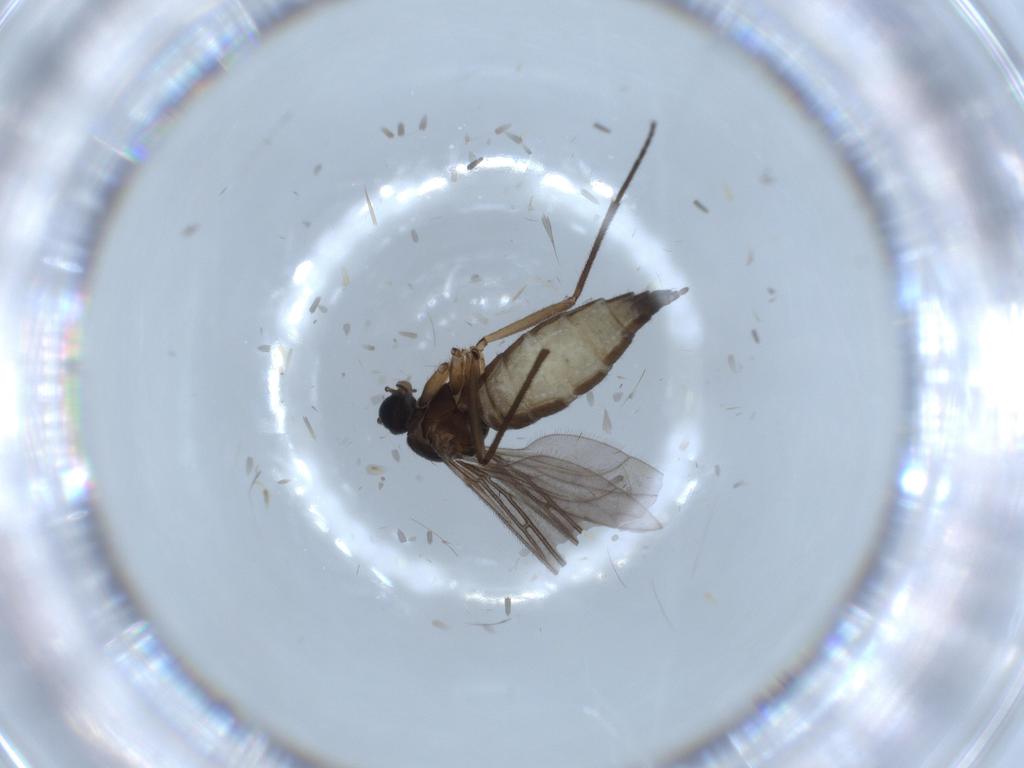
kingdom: Animalia
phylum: Arthropoda
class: Insecta
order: Diptera
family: Sciaridae
